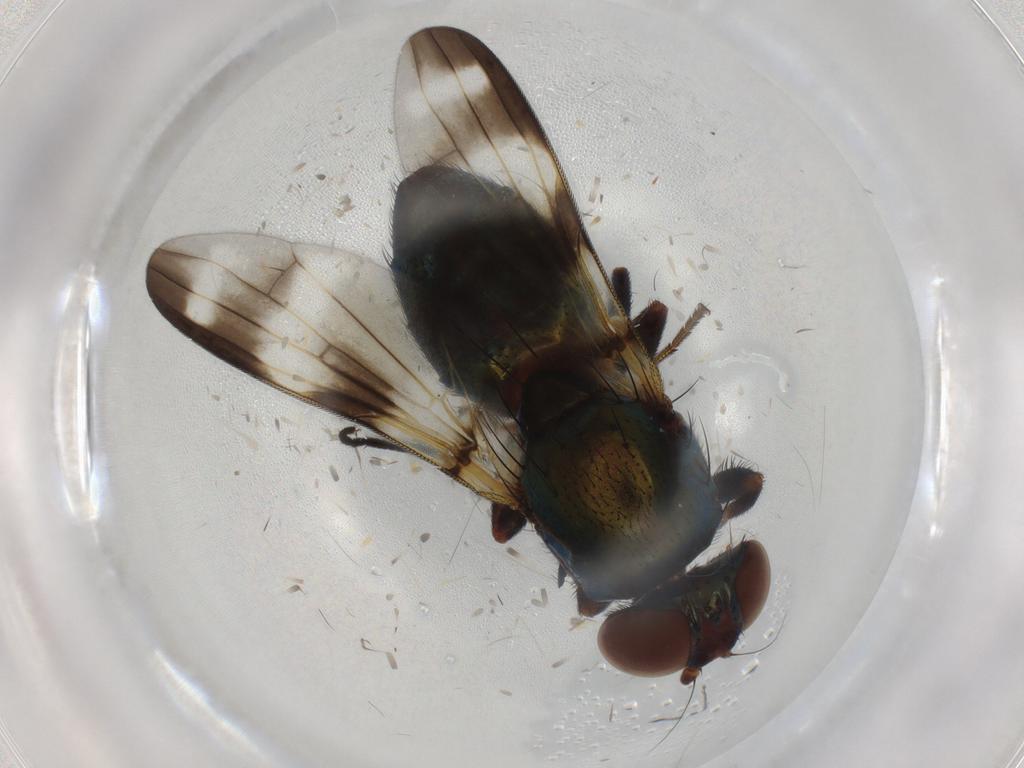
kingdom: Animalia
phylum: Arthropoda
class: Insecta
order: Diptera
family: Ulidiidae
